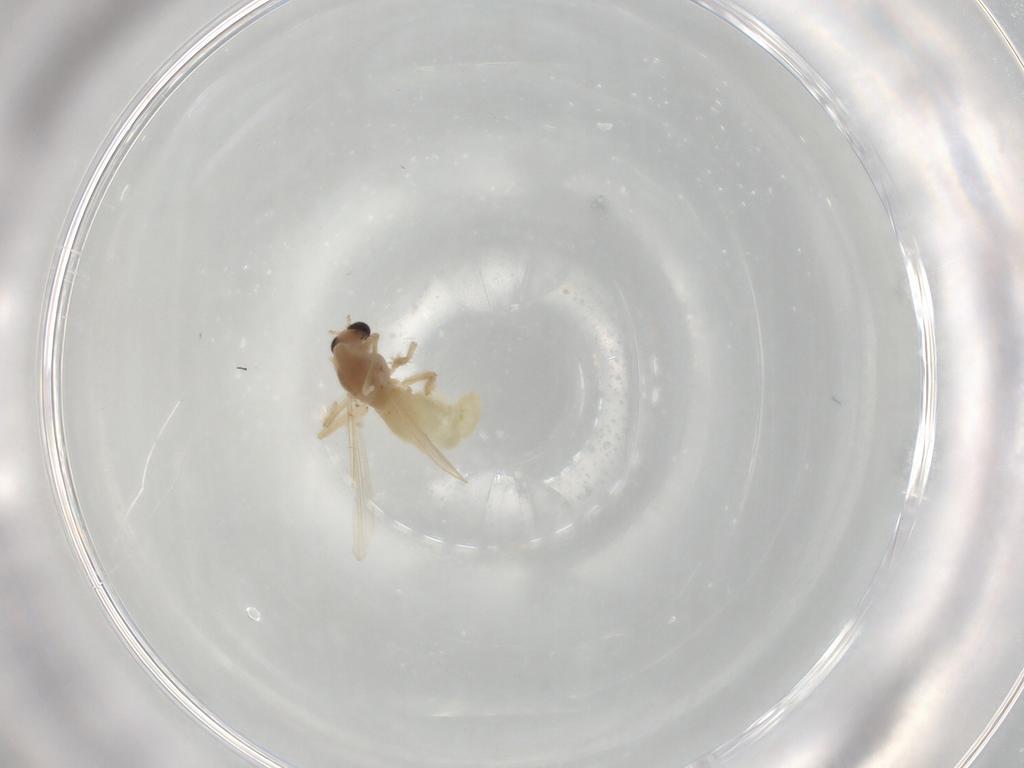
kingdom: Animalia
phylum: Arthropoda
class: Insecta
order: Diptera
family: Chironomidae
